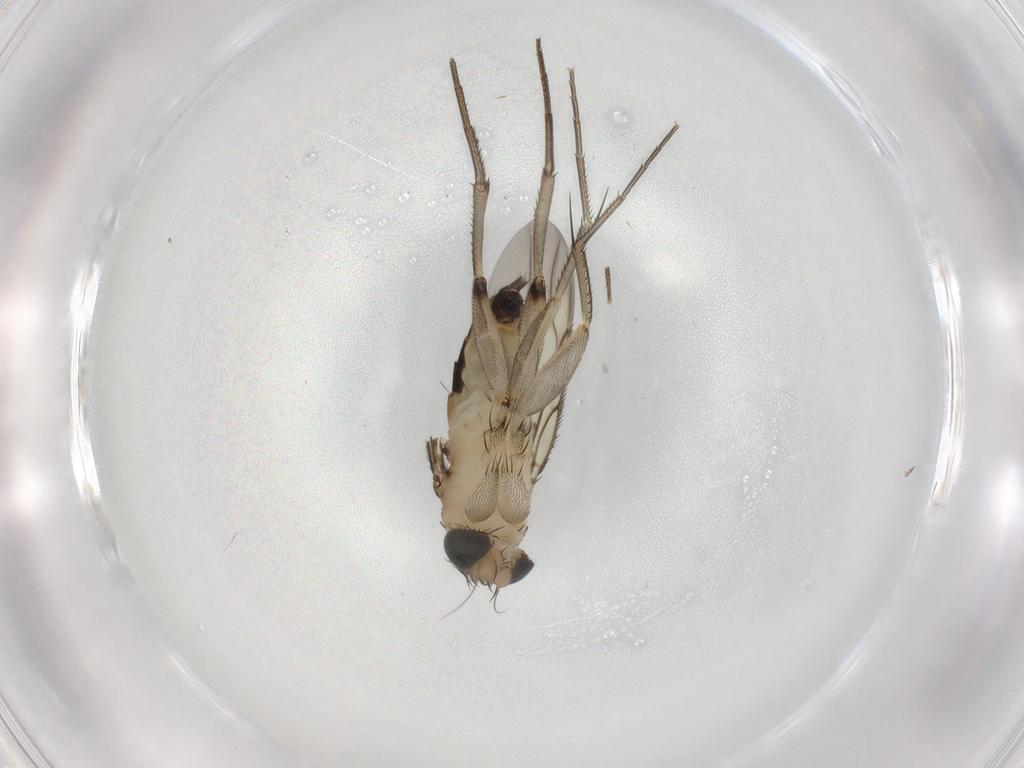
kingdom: Animalia
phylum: Arthropoda
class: Insecta
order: Diptera
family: Phoridae
